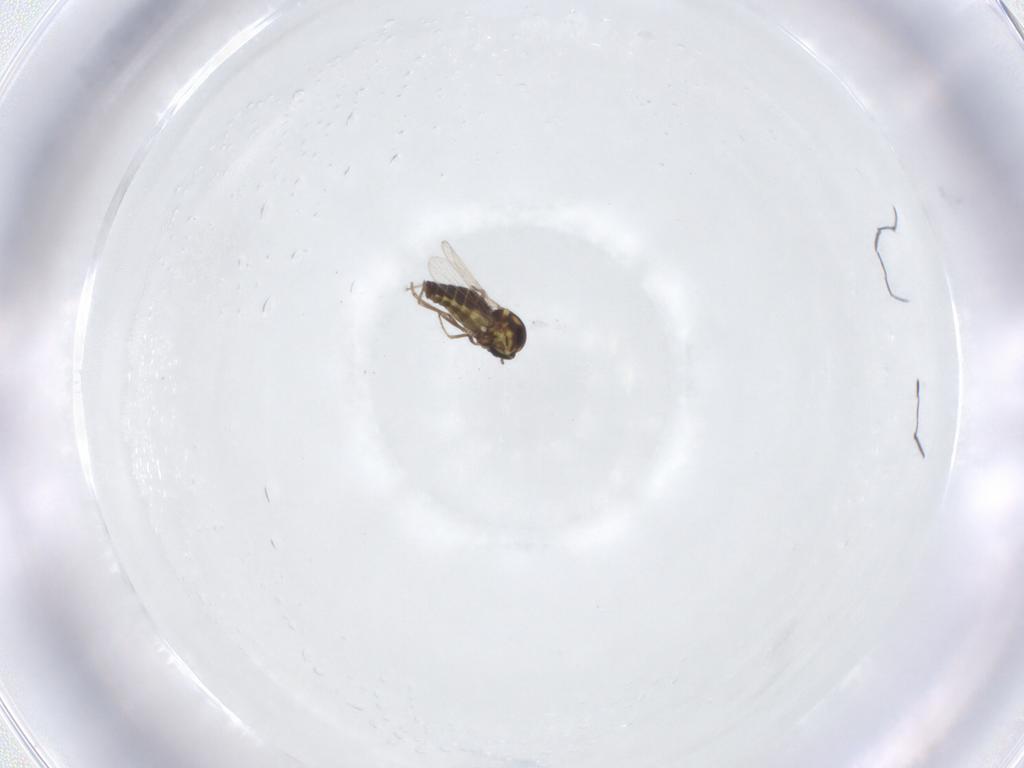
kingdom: Animalia
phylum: Arthropoda
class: Insecta
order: Diptera
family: Ceratopogonidae
